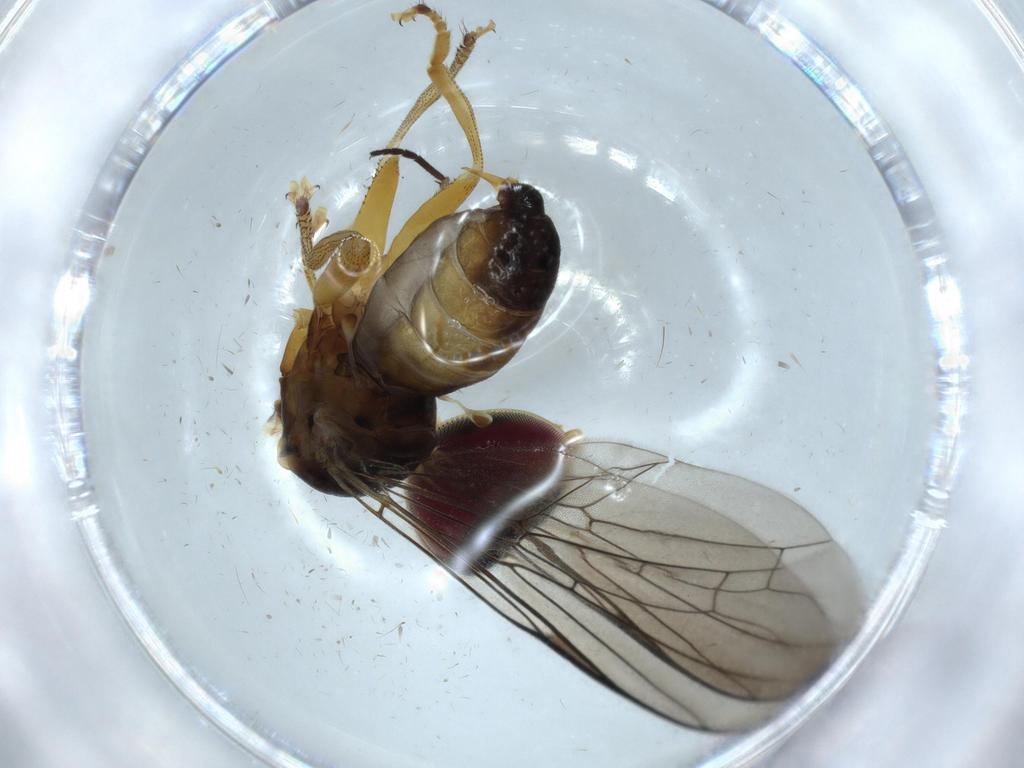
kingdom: Animalia
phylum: Arthropoda
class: Insecta
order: Diptera
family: Sciaridae
